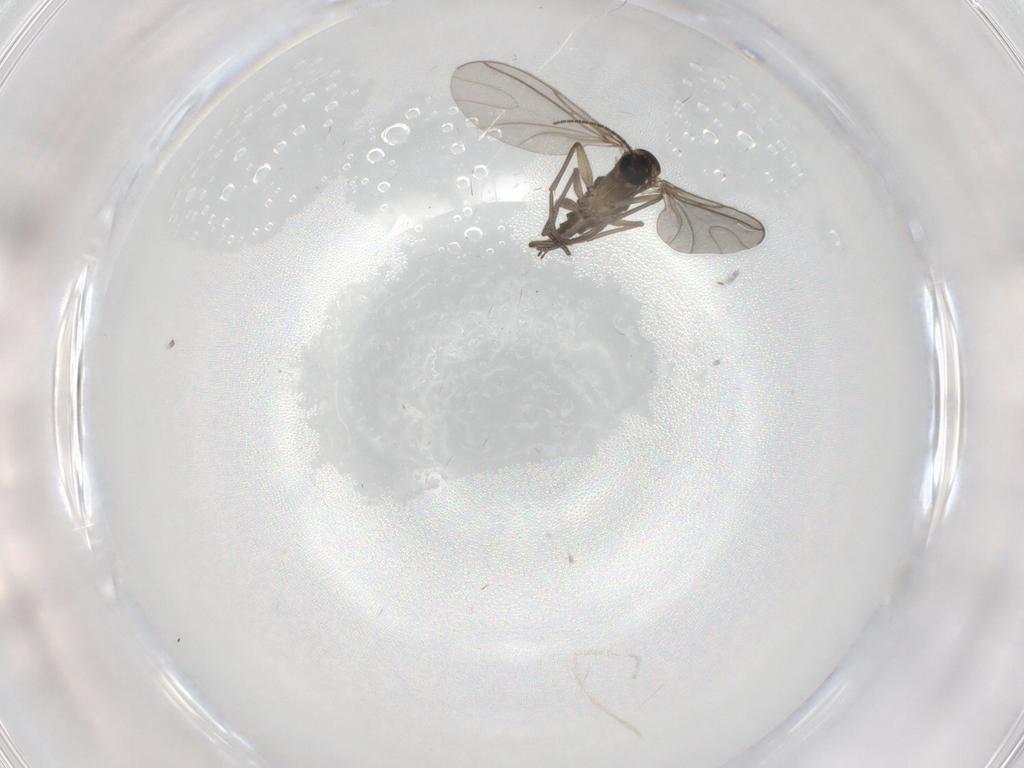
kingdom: Animalia
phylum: Arthropoda
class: Insecta
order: Diptera
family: Sciaridae
